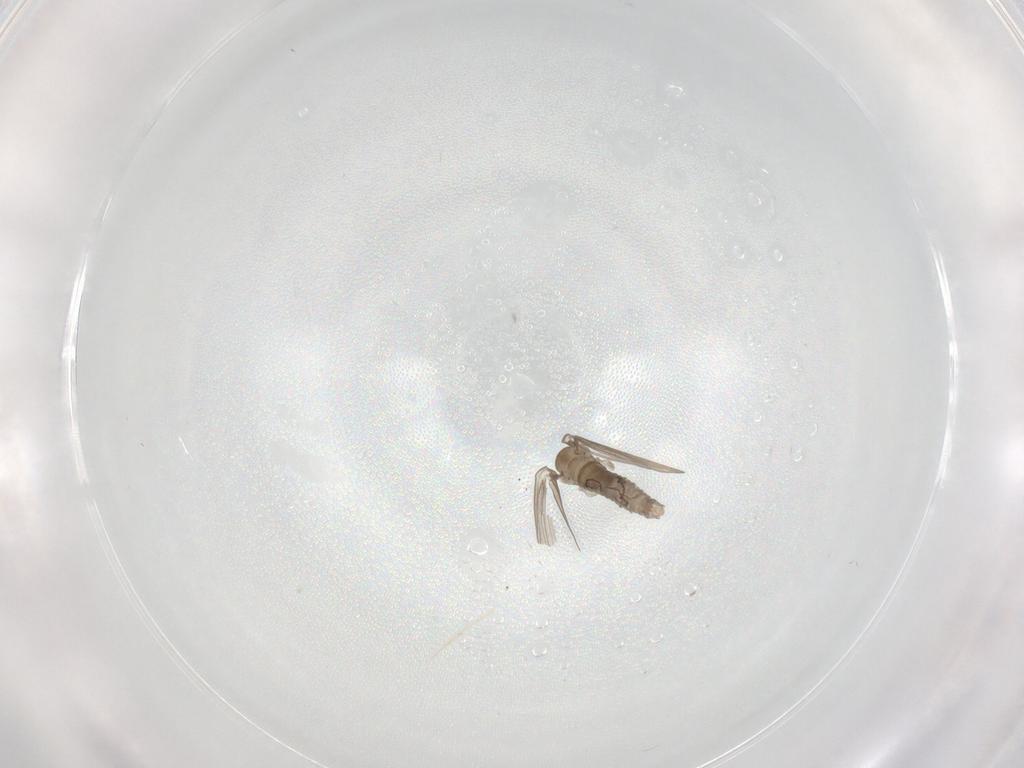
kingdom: Animalia
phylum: Arthropoda
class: Insecta
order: Diptera
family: Psychodidae
